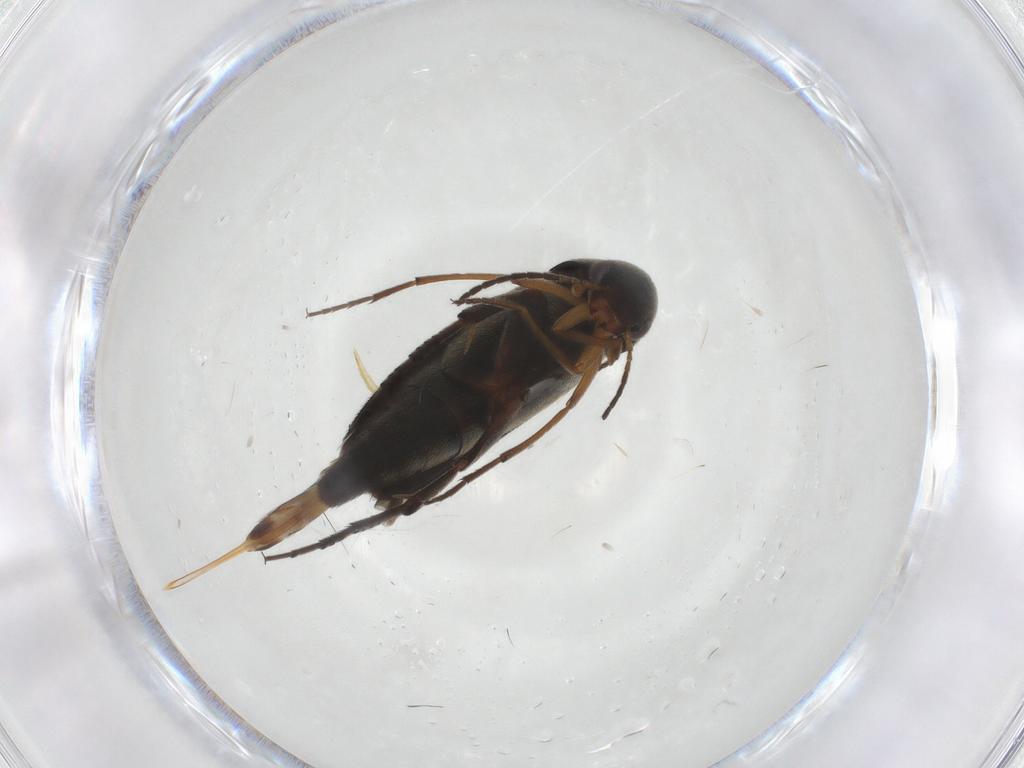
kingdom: Animalia
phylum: Arthropoda
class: Insecta
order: Coleoptera
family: Mordellidae
